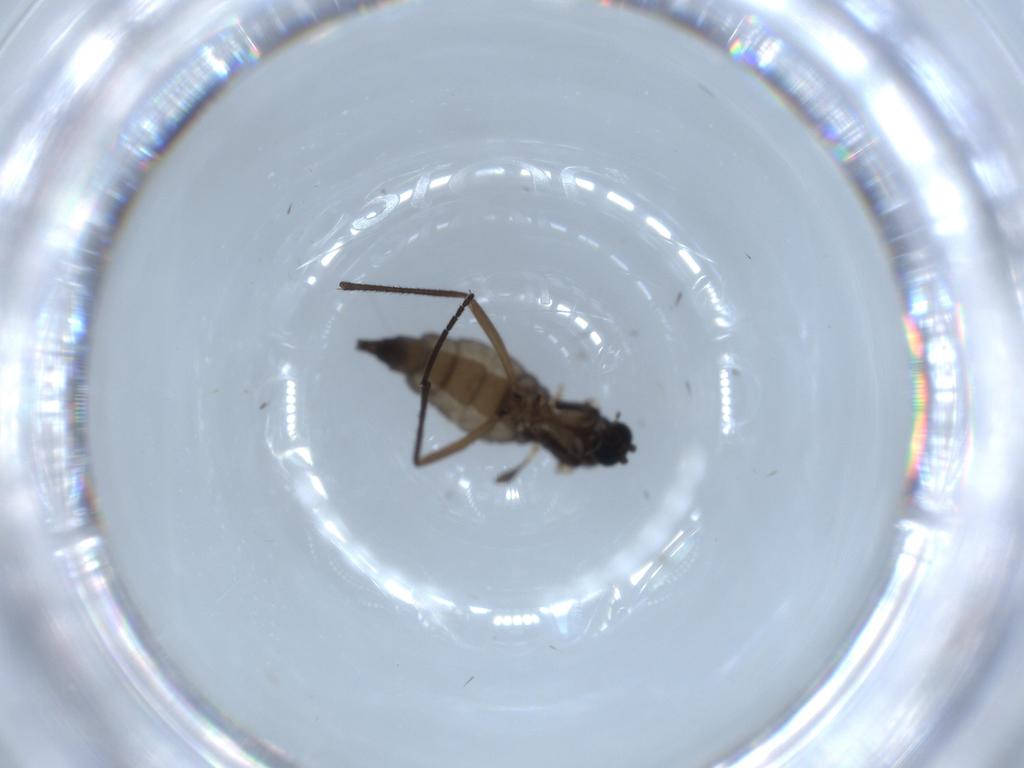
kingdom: Animalia
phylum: Arthropoda
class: Insecta
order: Diptera
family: Sciaridae
